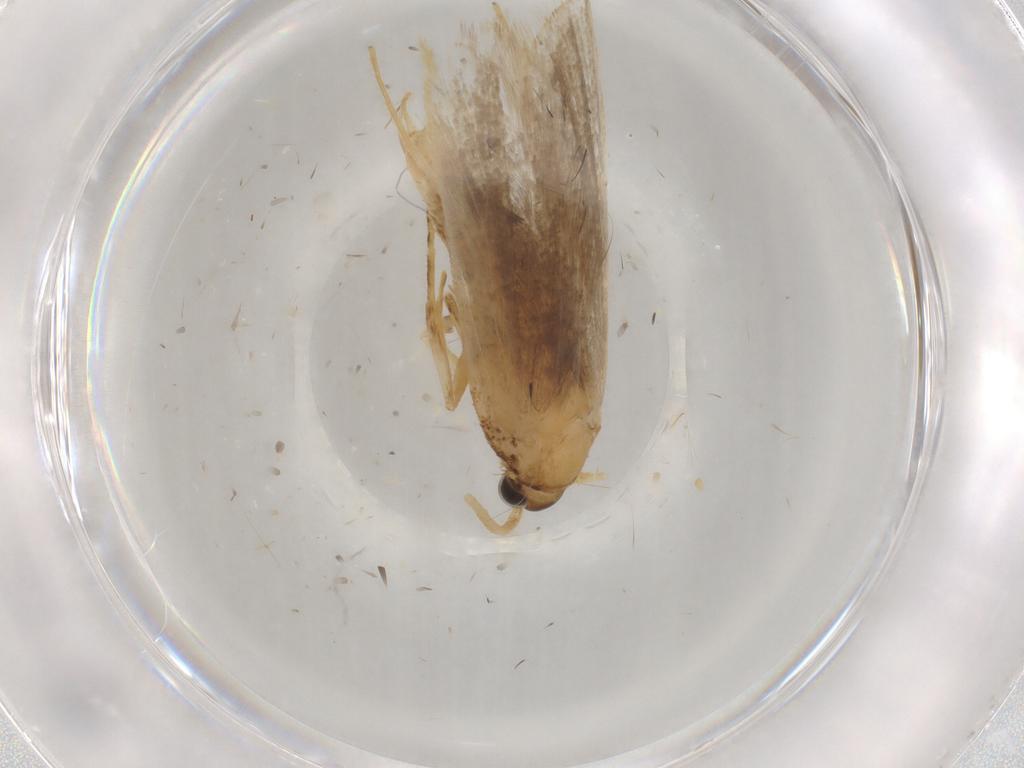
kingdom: Animalia
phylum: Arthropoda
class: Insecta
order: Lepidoptera
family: Lecithoceridae
